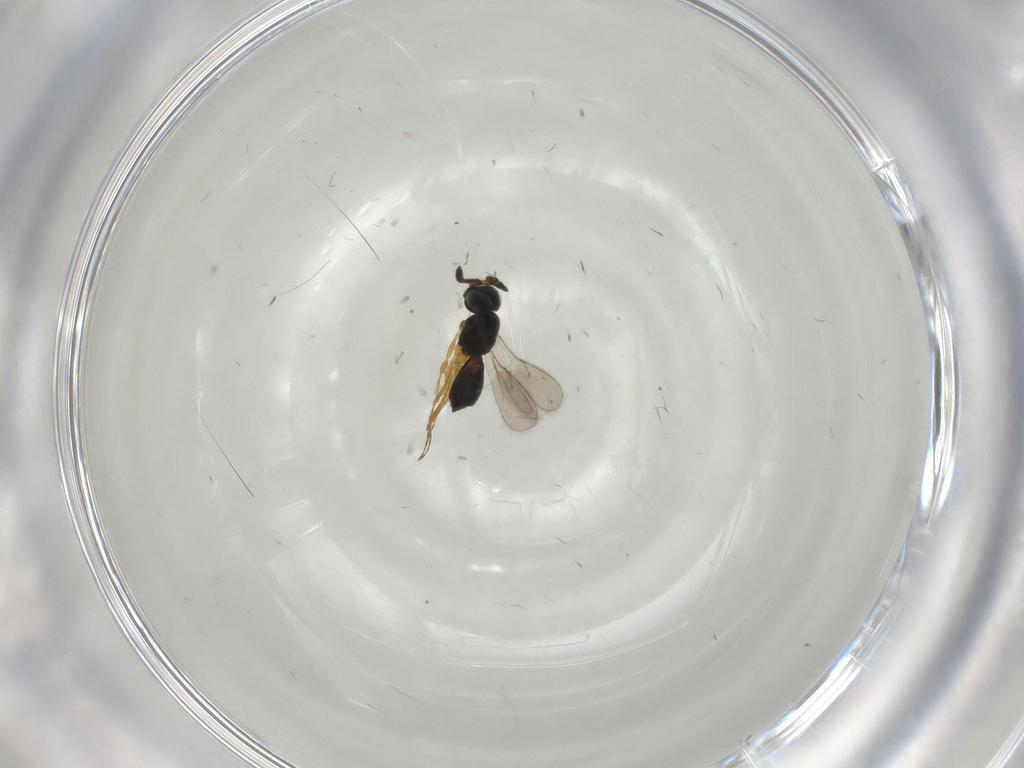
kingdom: Animalia
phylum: Arthropoda
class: Insecta
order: Hymenoptera
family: Scelionidae
